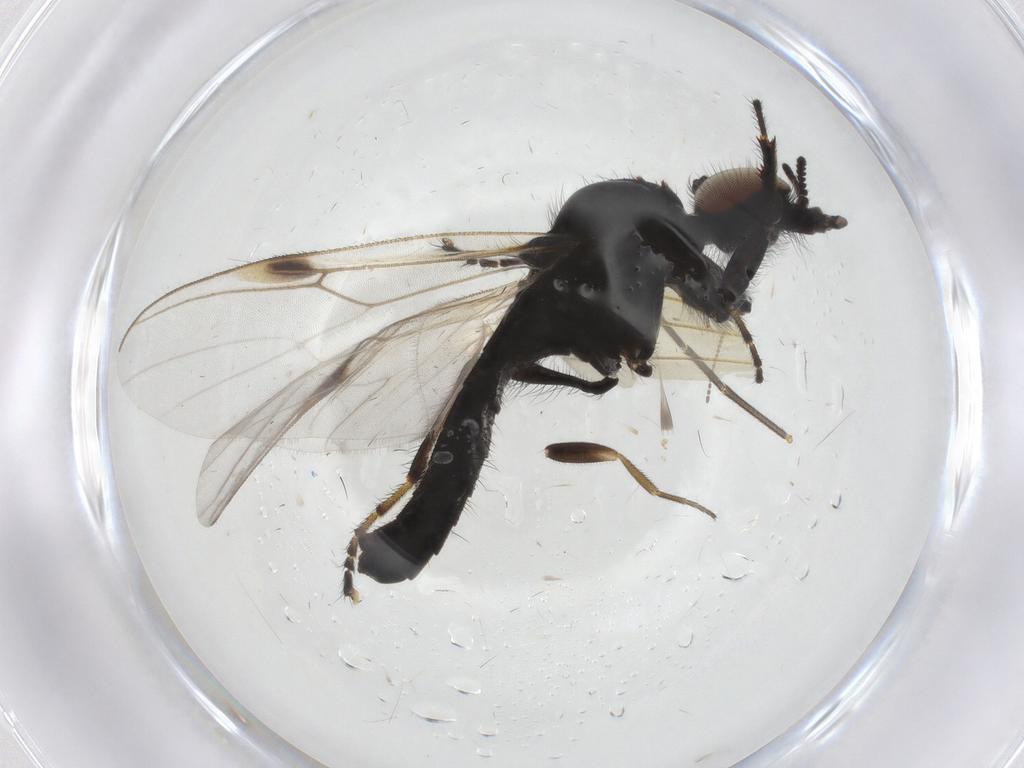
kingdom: Animalia
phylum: Arthropoda
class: Insecta
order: Diptera
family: Bibionidae
